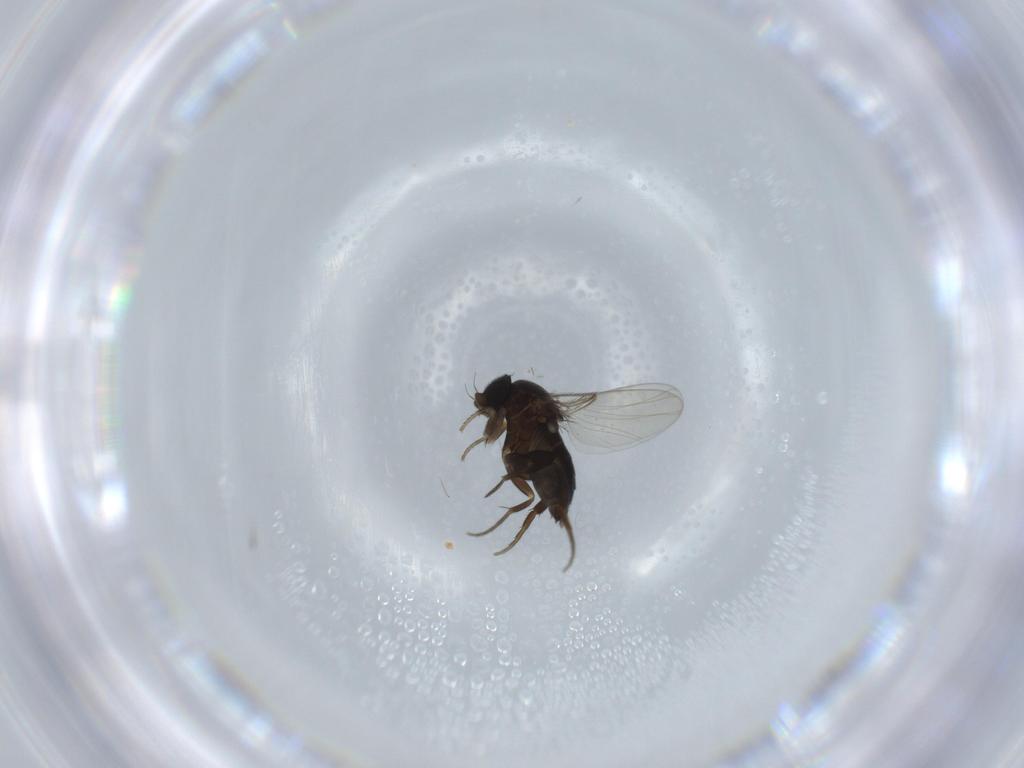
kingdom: Animalia
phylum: Arthropoda
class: Insecta
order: Diptera
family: Phoridae
